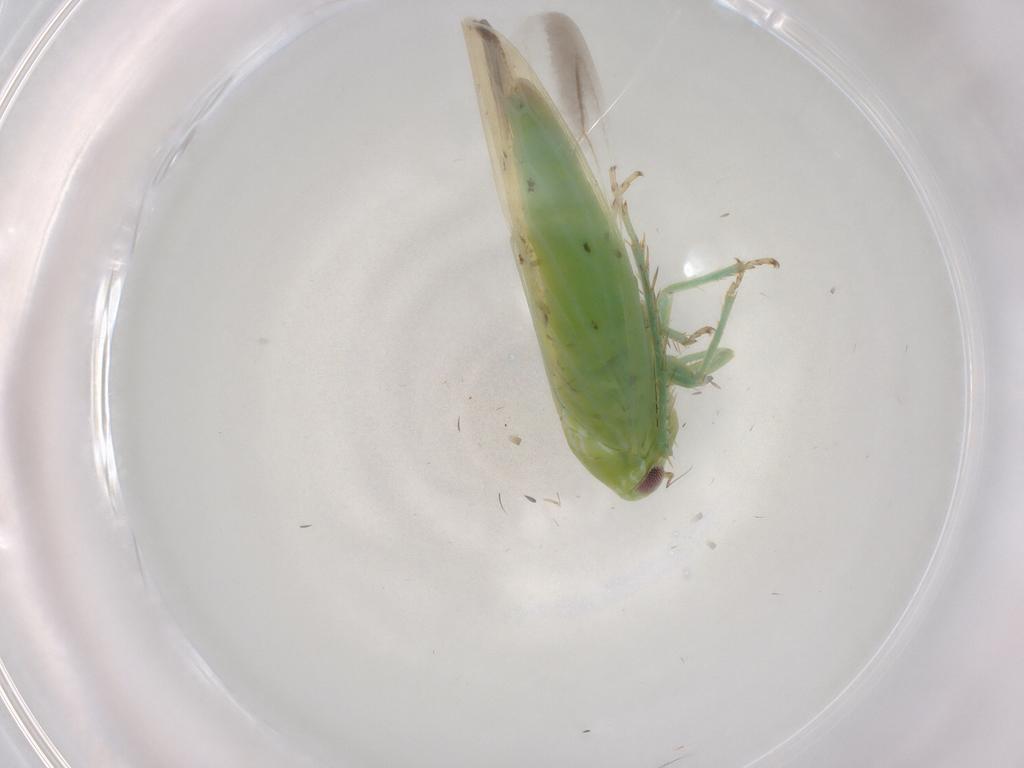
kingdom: Animalia
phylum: Arthropoda
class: Insecta
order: Hemiptera
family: Cicadellidae
